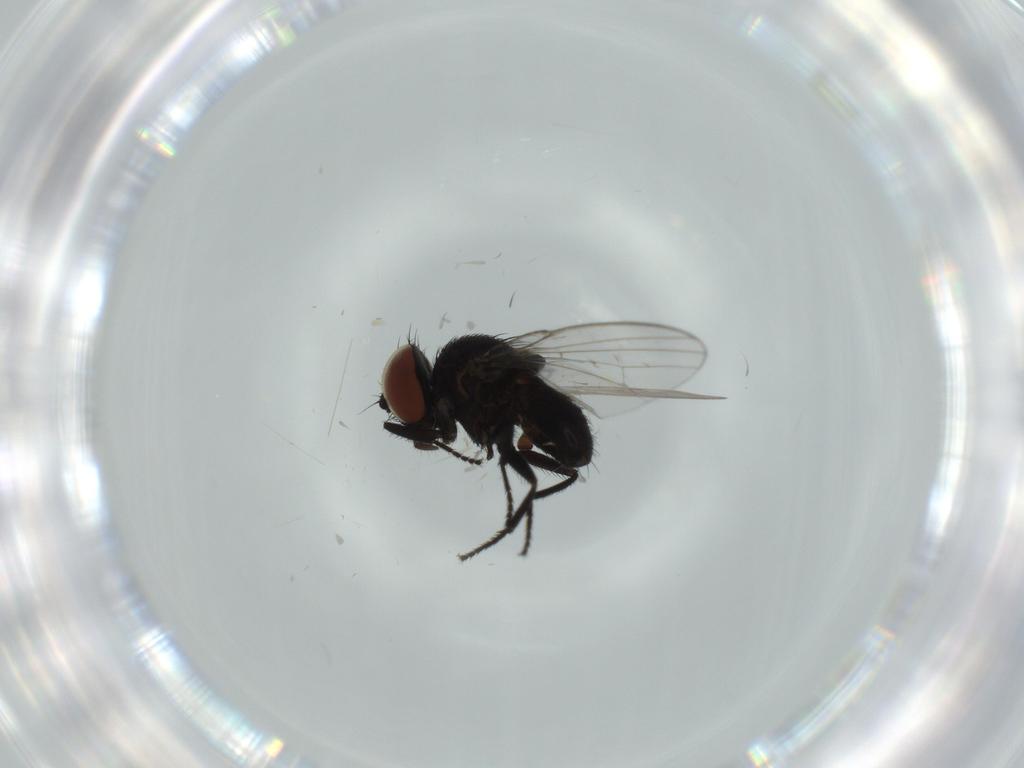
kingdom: Animalia
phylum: Arthropoda
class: Insecta
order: Diptera
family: Milichiidae
